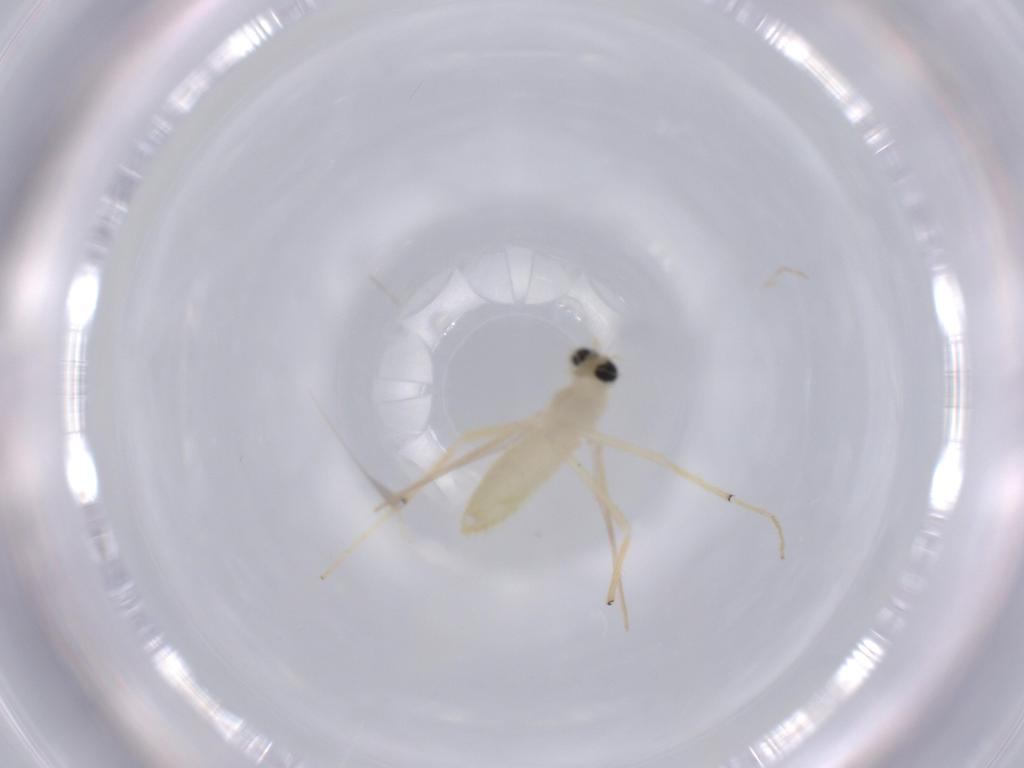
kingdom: Animalia
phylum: Arthropoda
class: Insecta
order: Diptera
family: Chironomidae
